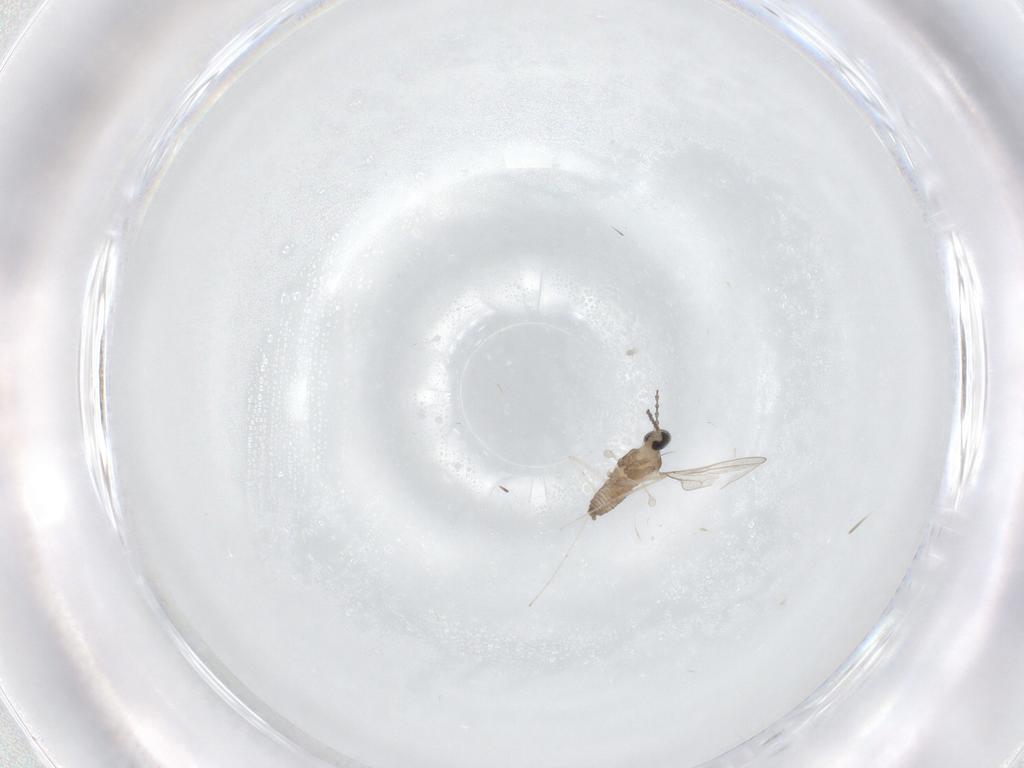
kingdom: Animalia
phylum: Arthropoda
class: Insecta
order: Diptera
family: Cecidomyiidae
